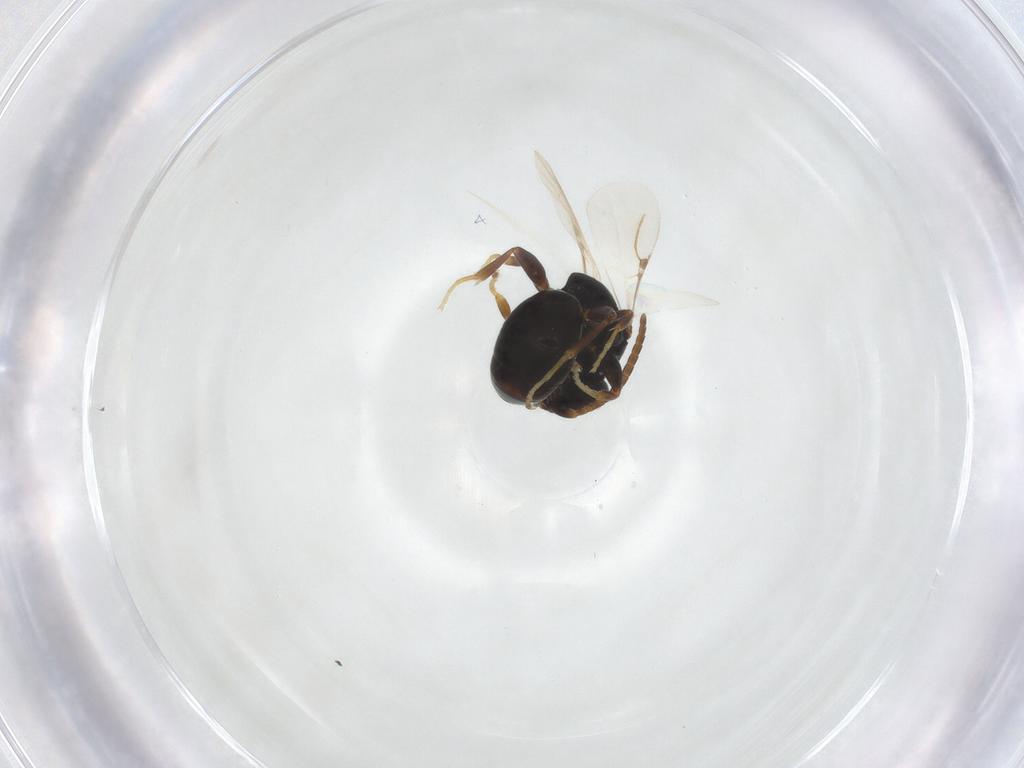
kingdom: Animalia
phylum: Arthropoda
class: Insecta
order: Hymenoptera
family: Bethylidae
